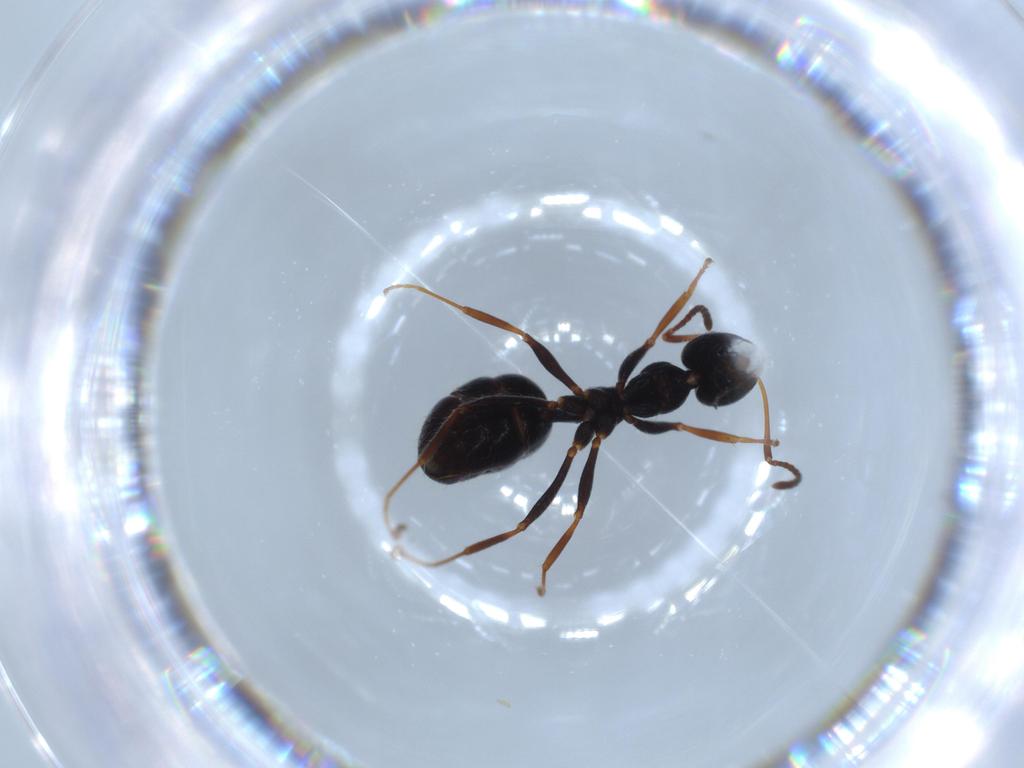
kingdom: Animalia
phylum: Arthropoda
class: Insecta
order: Hymenoptera
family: Formicidae
